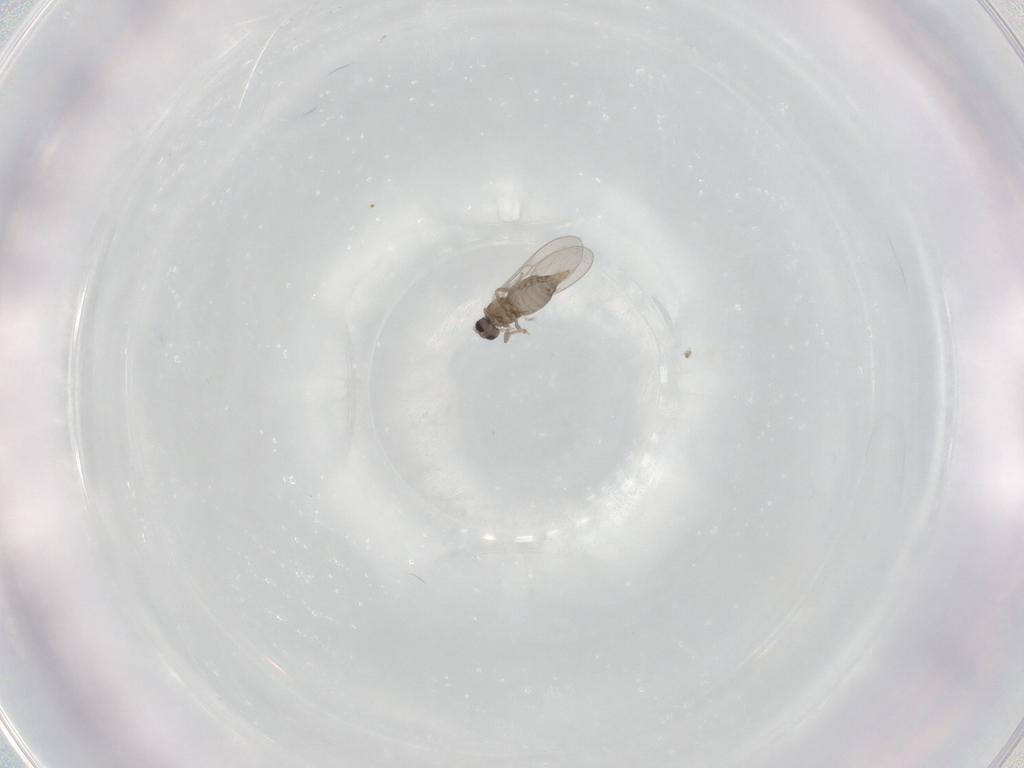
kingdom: Animalia
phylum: Arthropoda
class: Insecta
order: Diptera
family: Cecidomyiidae
